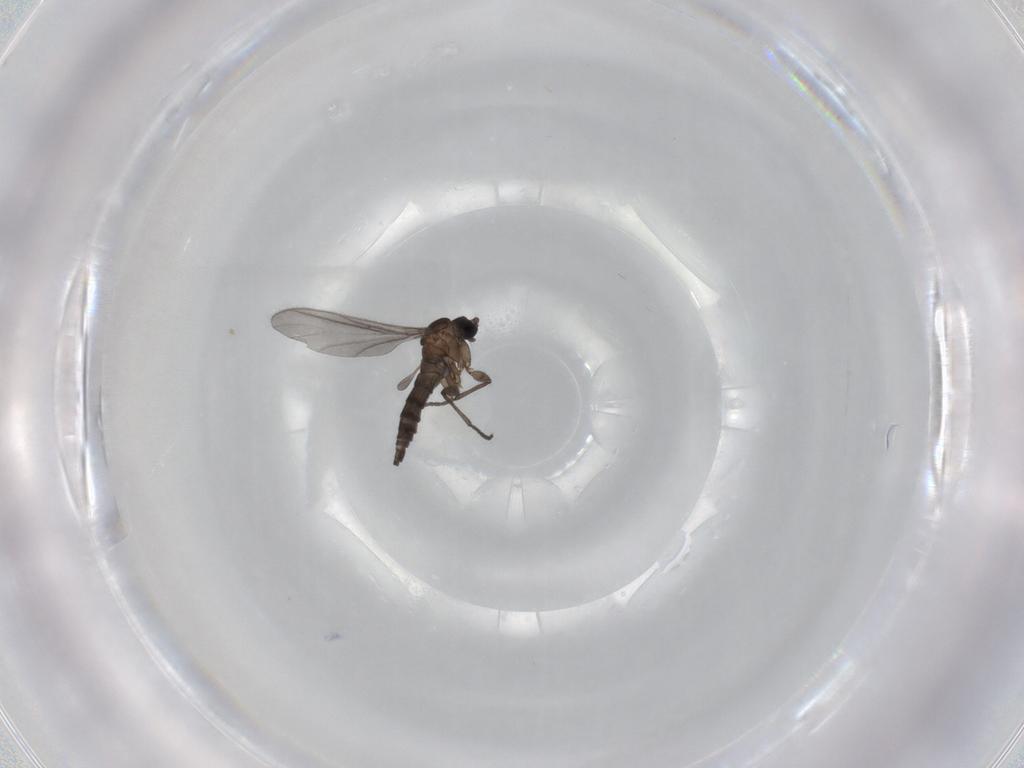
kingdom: Animalia
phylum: Arthropoda
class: Insecta
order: Diptera
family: Sciaridae
